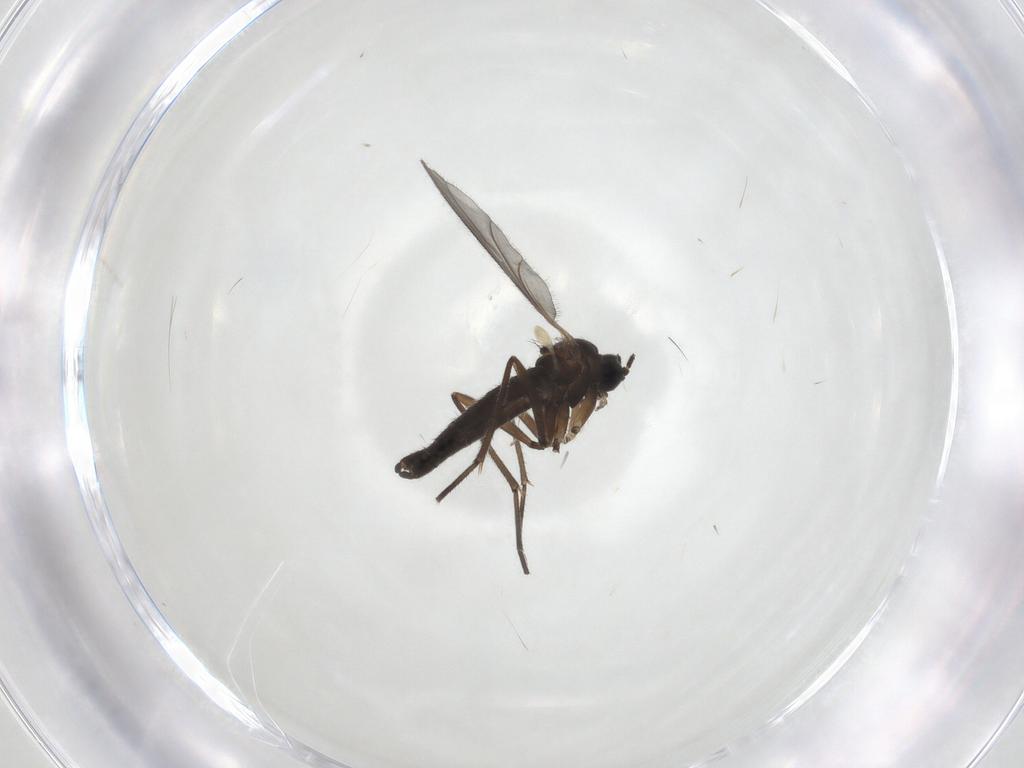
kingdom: Animalia
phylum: Arthropoda
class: Insecta
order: Diptera
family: Sciaridae
